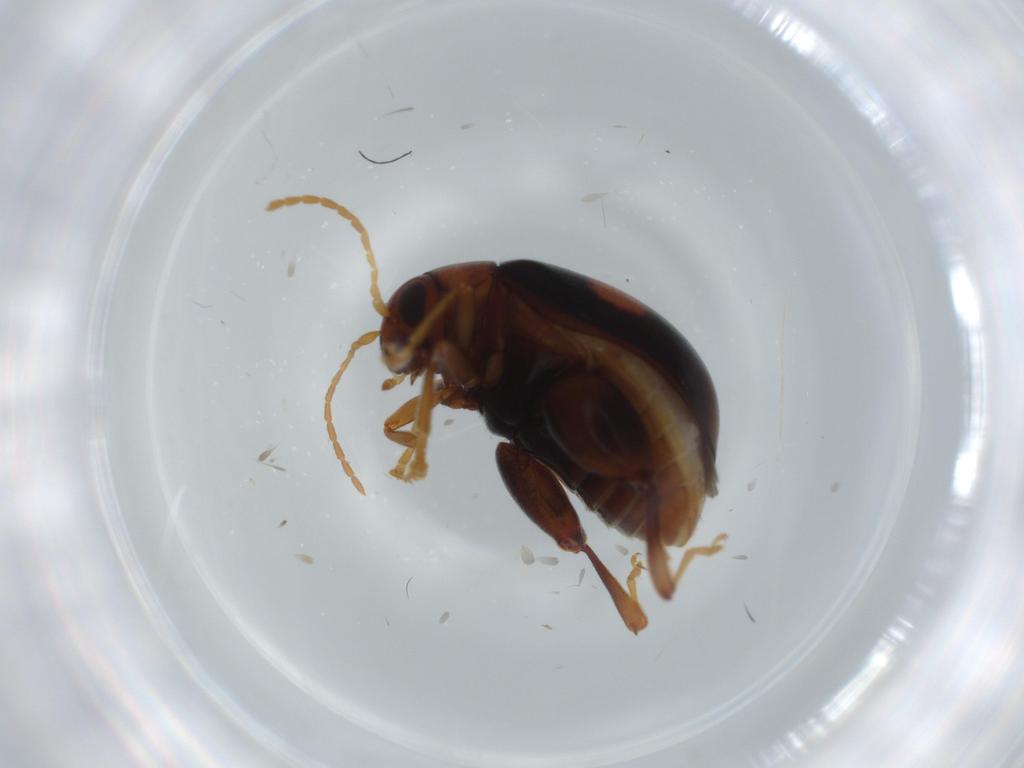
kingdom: Animalia
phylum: Arthropoda
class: Insecta
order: Coleoptera
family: Chrysomelidae
